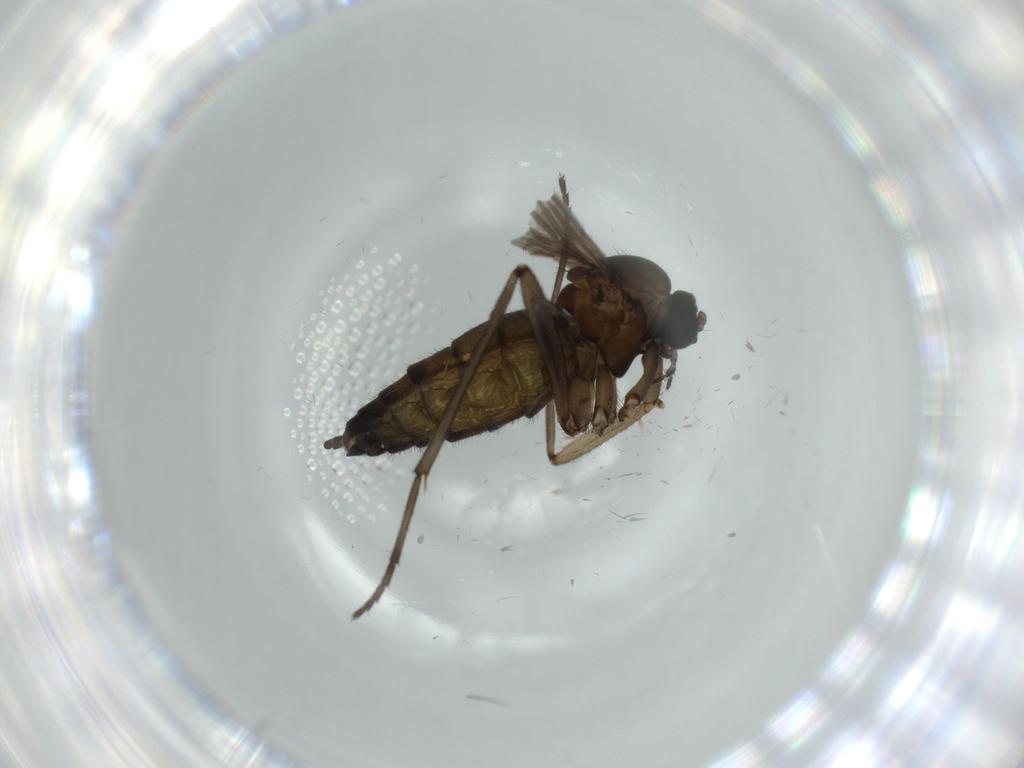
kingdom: Animalia
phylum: Arthropoda
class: Insecta
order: Diptera
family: Sciaridae
